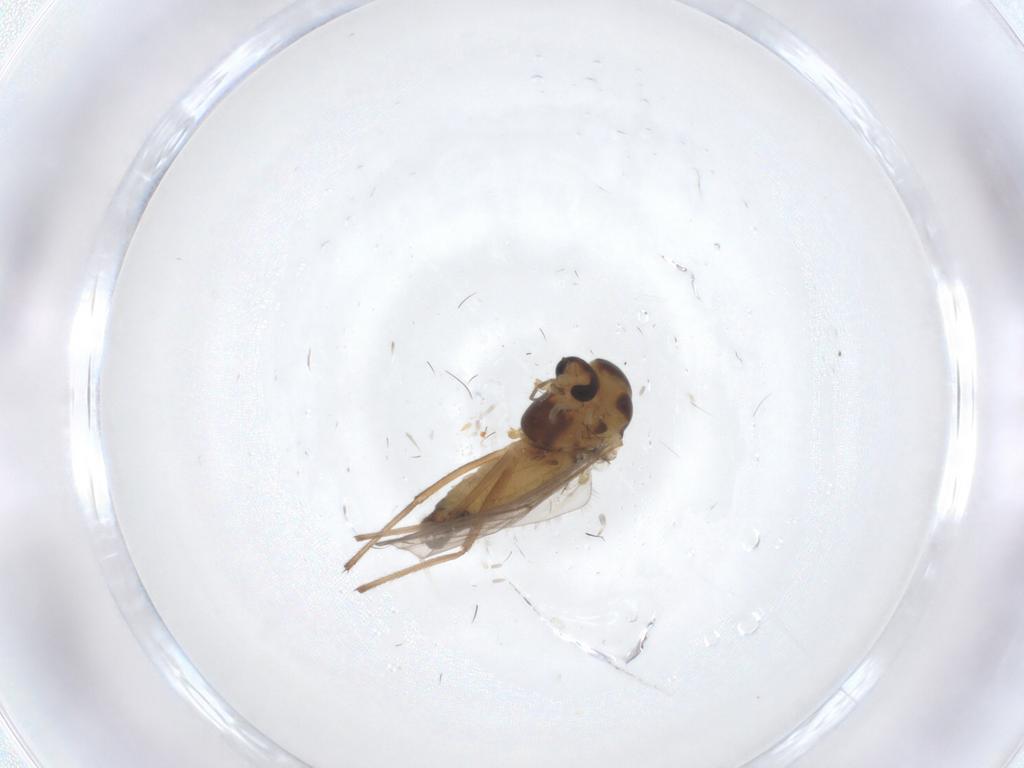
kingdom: Animalia
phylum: Arthropoda
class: Insecta
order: Diptera
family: Chironomidae
